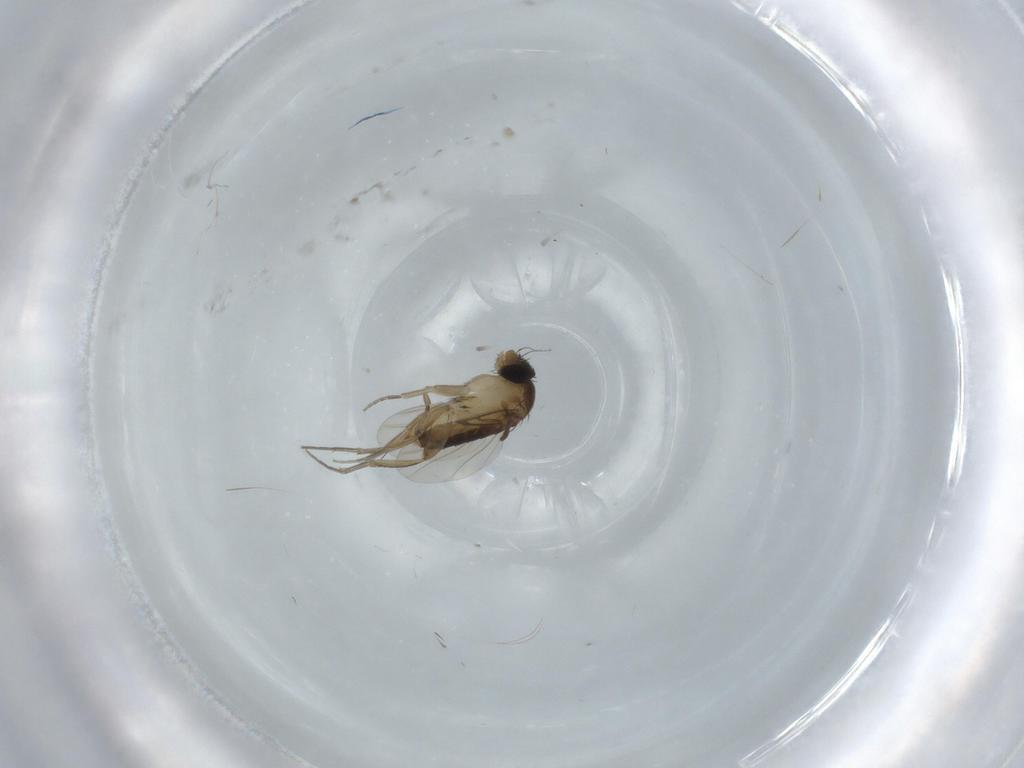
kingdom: Animalia
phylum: Arthropoda
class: Insecta
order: Diptera
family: Phoridae
